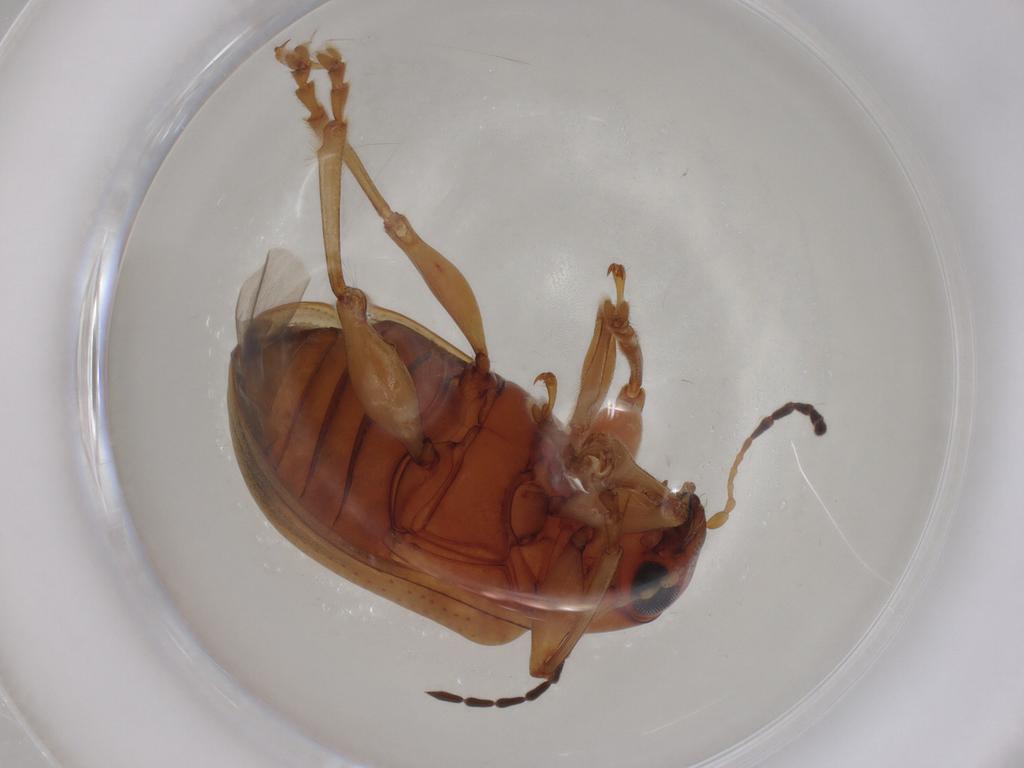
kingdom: Animalia
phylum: Arthropoda
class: Insecta
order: Coleoptera
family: Chrysomelidae
